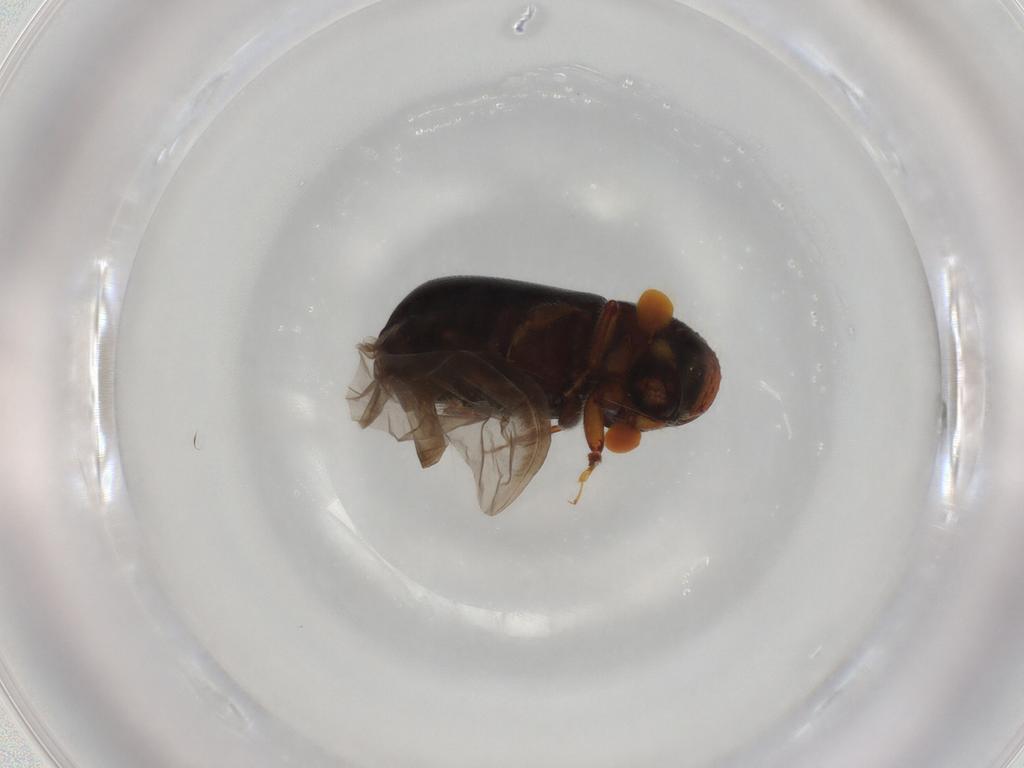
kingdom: Animalia
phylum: Arthropoda
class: Insecta
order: Coleoptera
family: Curculionidae
